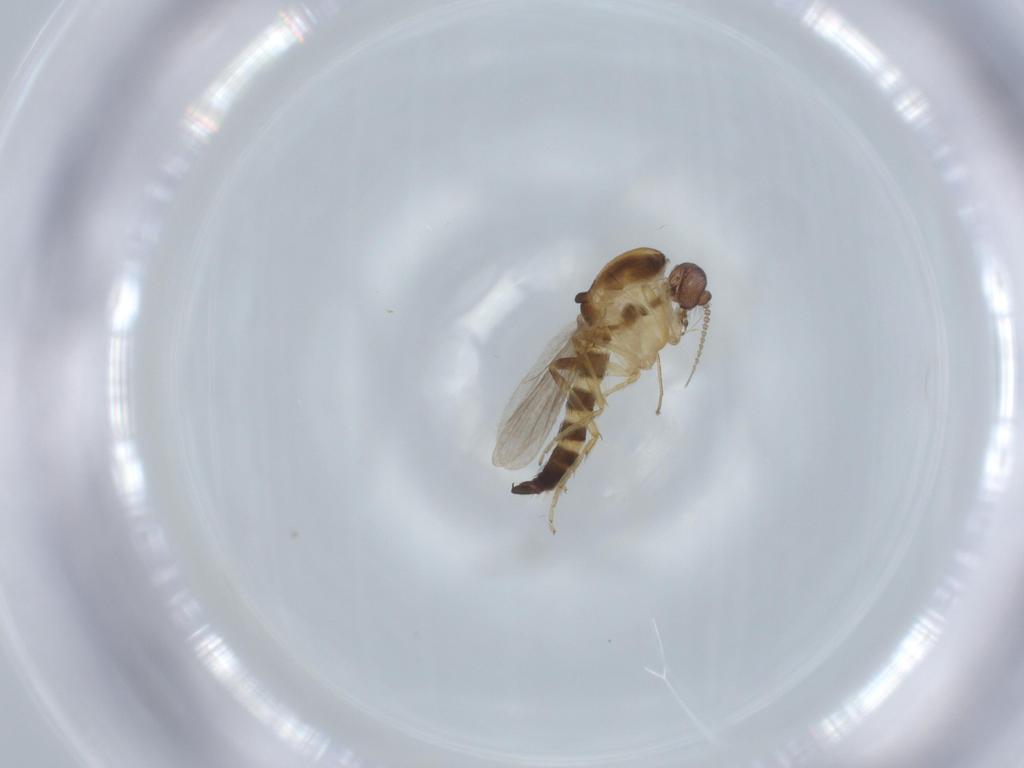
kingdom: Animalia
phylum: Arthropoda
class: Insecta
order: Diptera
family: Ceratopogonidae
